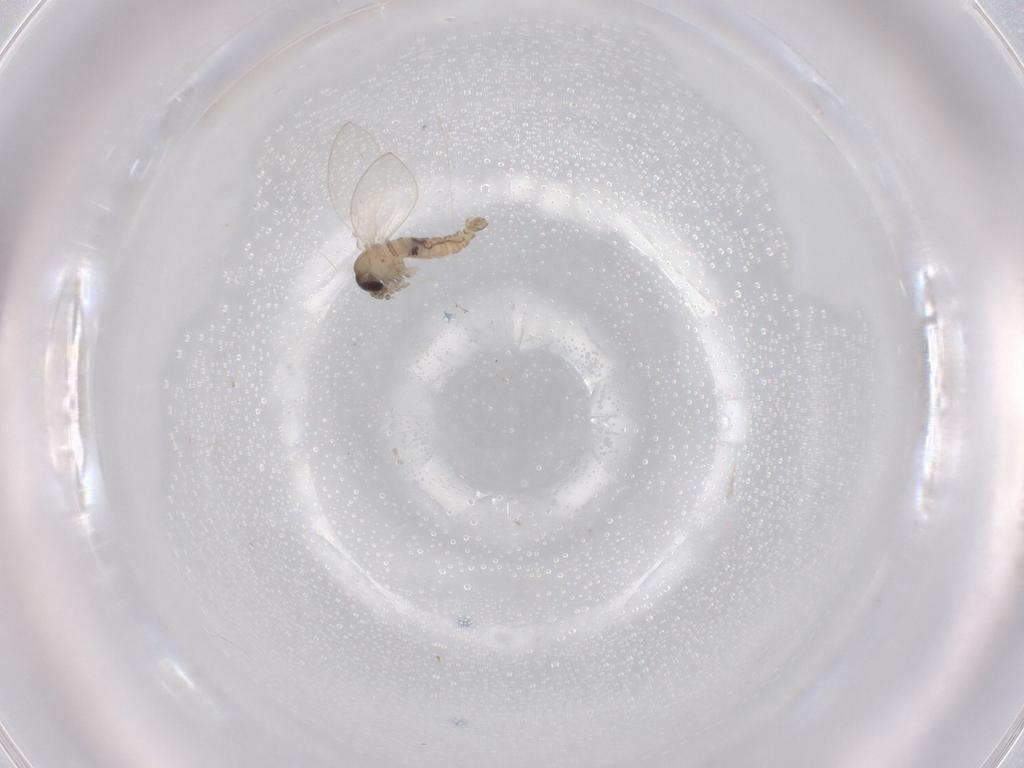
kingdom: Animalia
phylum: Arthropoda
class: Insecta
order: Diptera
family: Psychodidae
